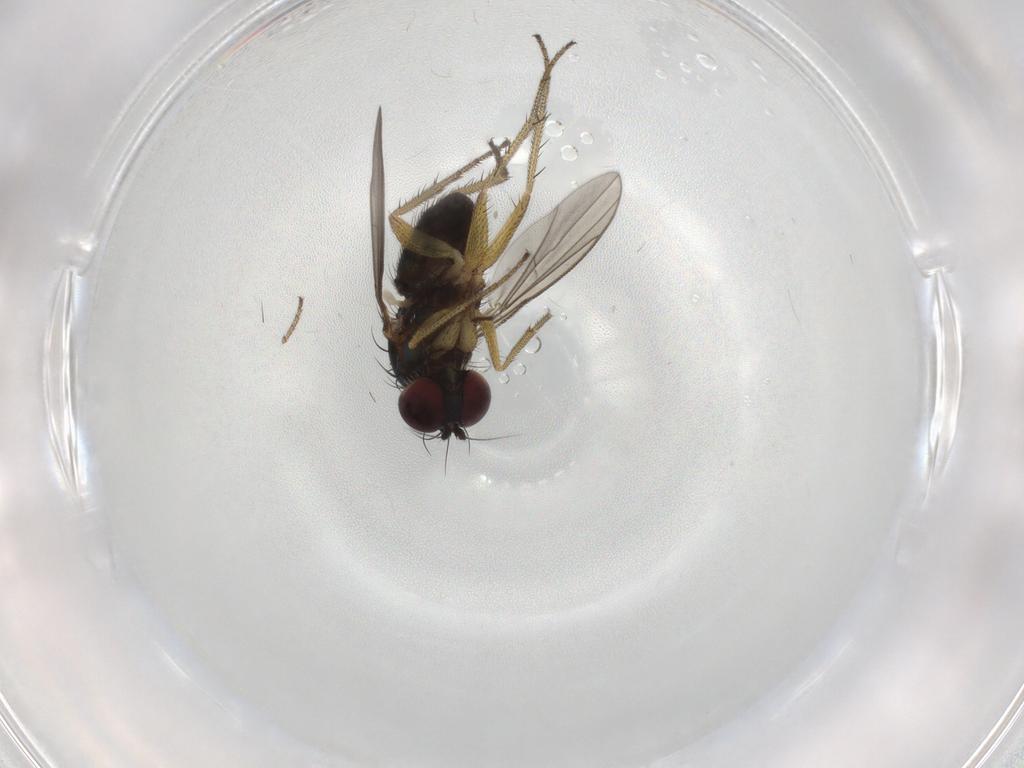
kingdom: Animalia
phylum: Arthropoda
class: Insecta
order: Diptera
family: Chironomidae
